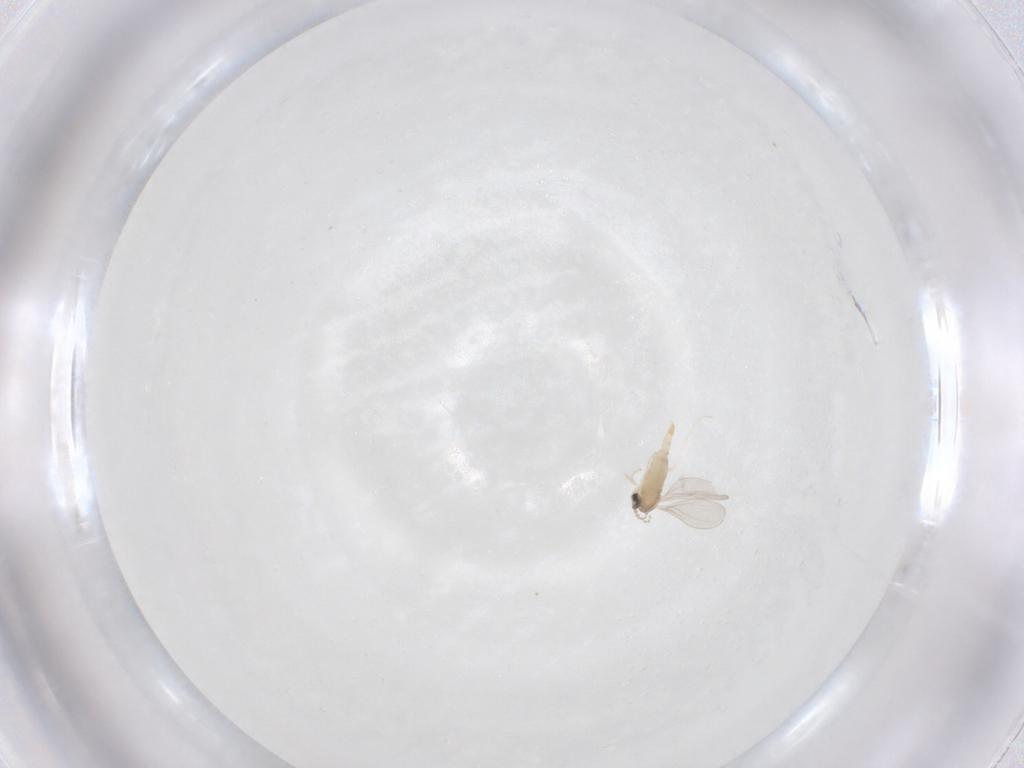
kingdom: Animalia
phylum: Arthropoda
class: Insecta
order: Diptera
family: Cecidomyiidae
